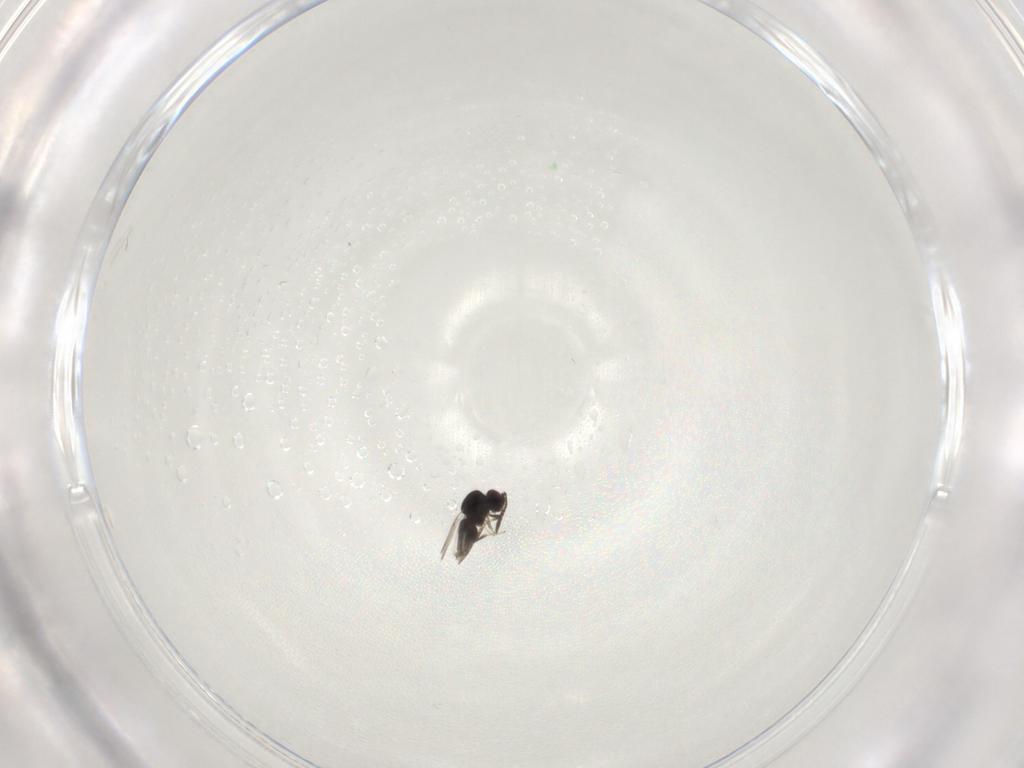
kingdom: Animalia
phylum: Arthropoda
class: Insecta
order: Hymenoptera
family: Ceraphronidae
